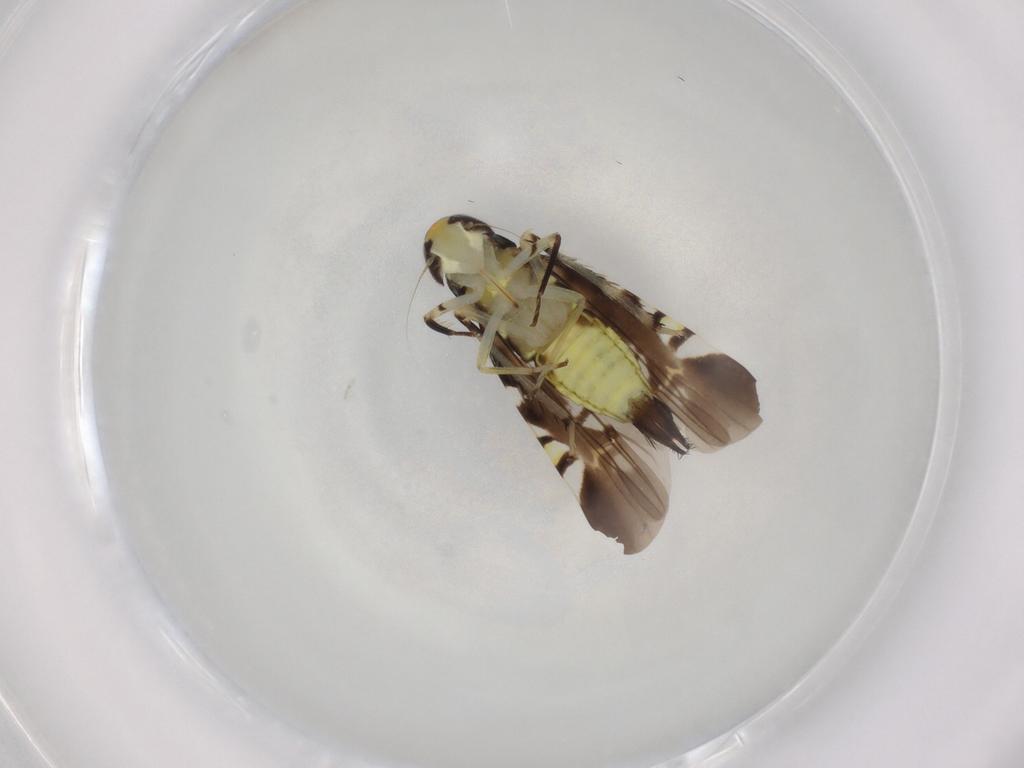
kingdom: Animalia
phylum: Arthropoda
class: Insecta
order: Hemiptera
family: Cicadellidae
